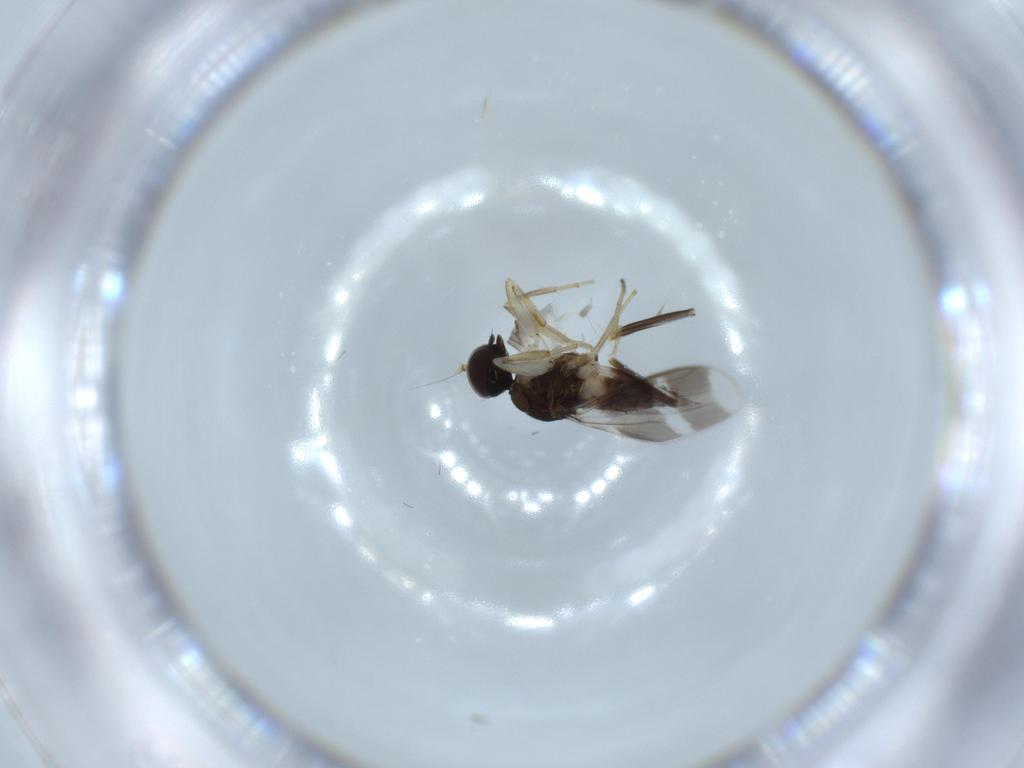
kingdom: Animalia
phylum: Arthropoda
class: Insecta
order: Diptera
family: Hybotidae
